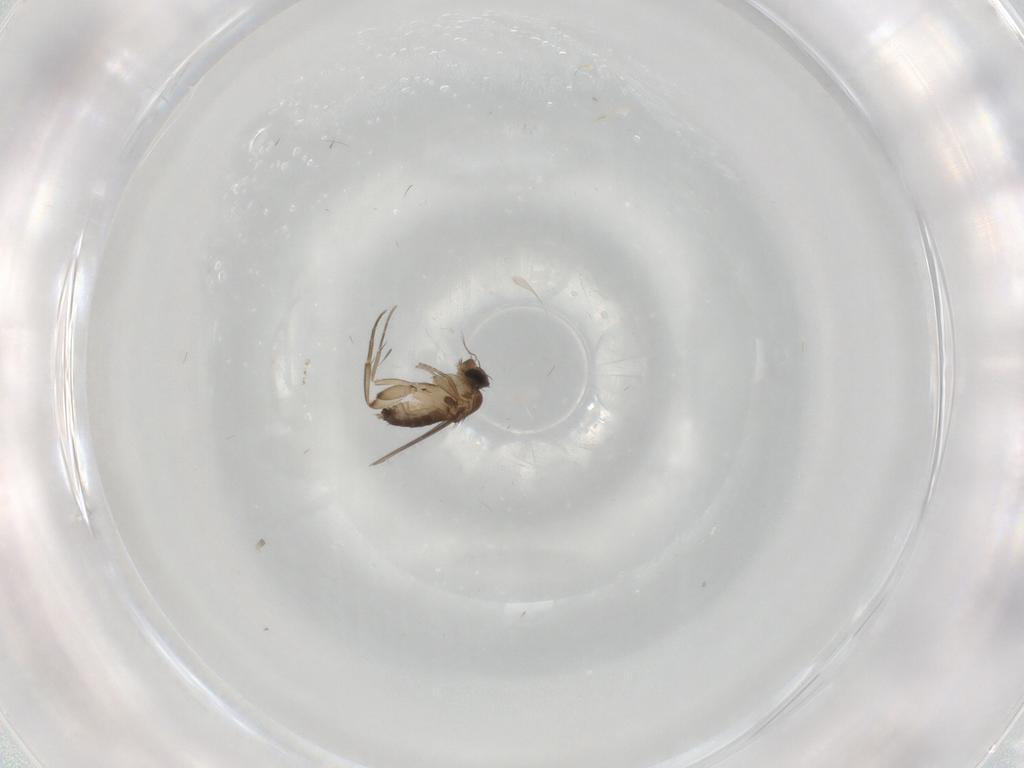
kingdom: Animalia
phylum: Arthropoda
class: Insecta
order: Diptera
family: Phoridae
